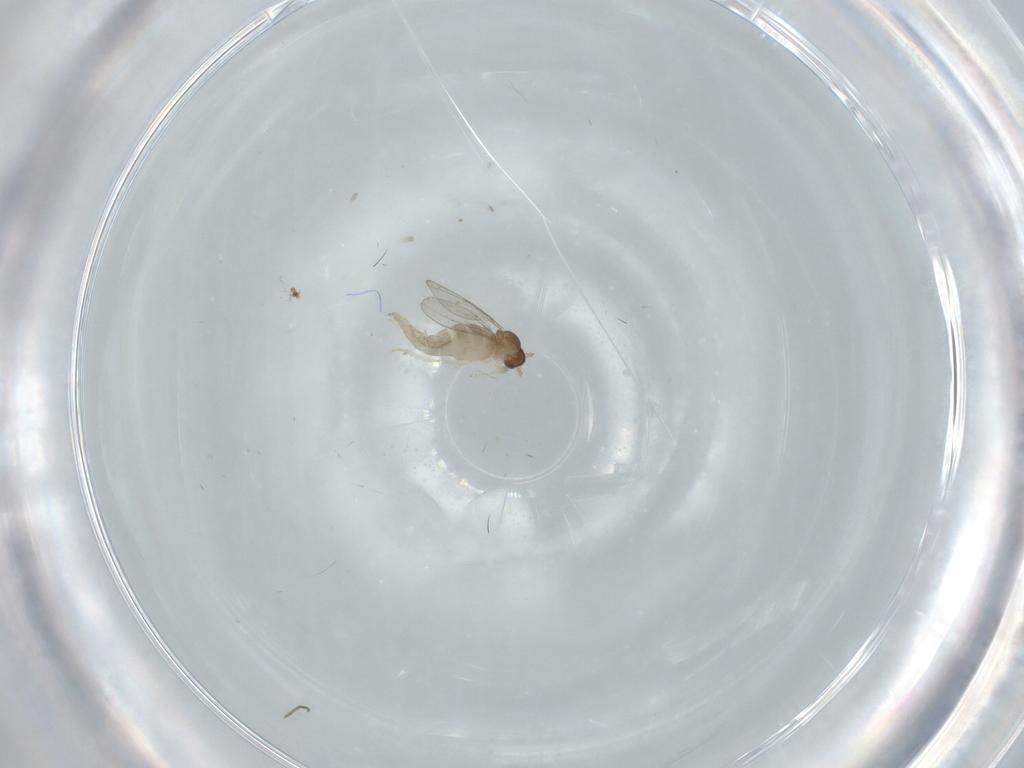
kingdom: Animalia
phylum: Arthropoda
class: Insecta
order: Diptera
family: Cecidomyiidae
